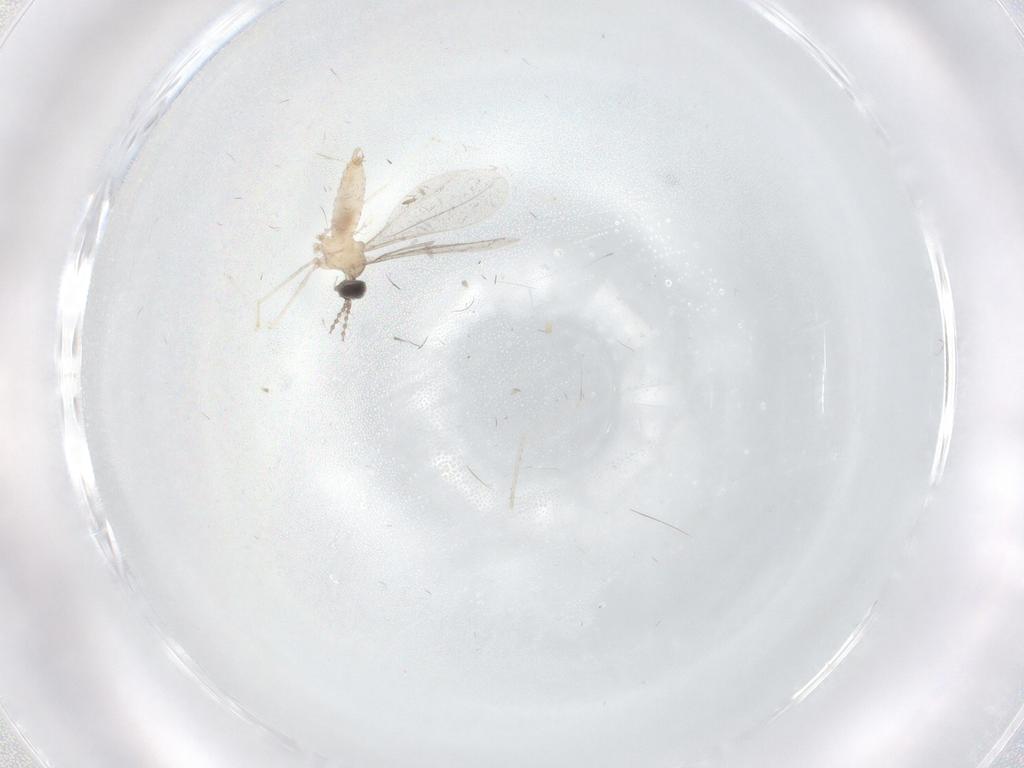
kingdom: Animalia
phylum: Arthropoda
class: Insecta
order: Diptera
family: Cecidomyiidae
